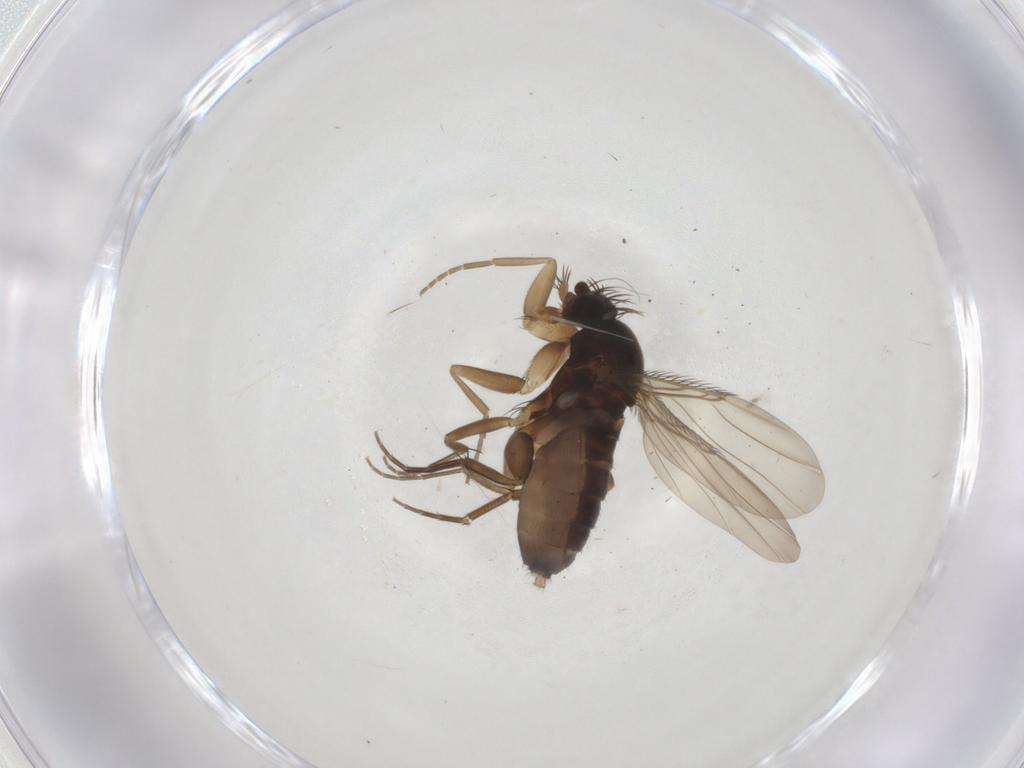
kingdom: Animalia
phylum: Arthropoda
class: Insecta
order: Diptera
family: Phoridae
